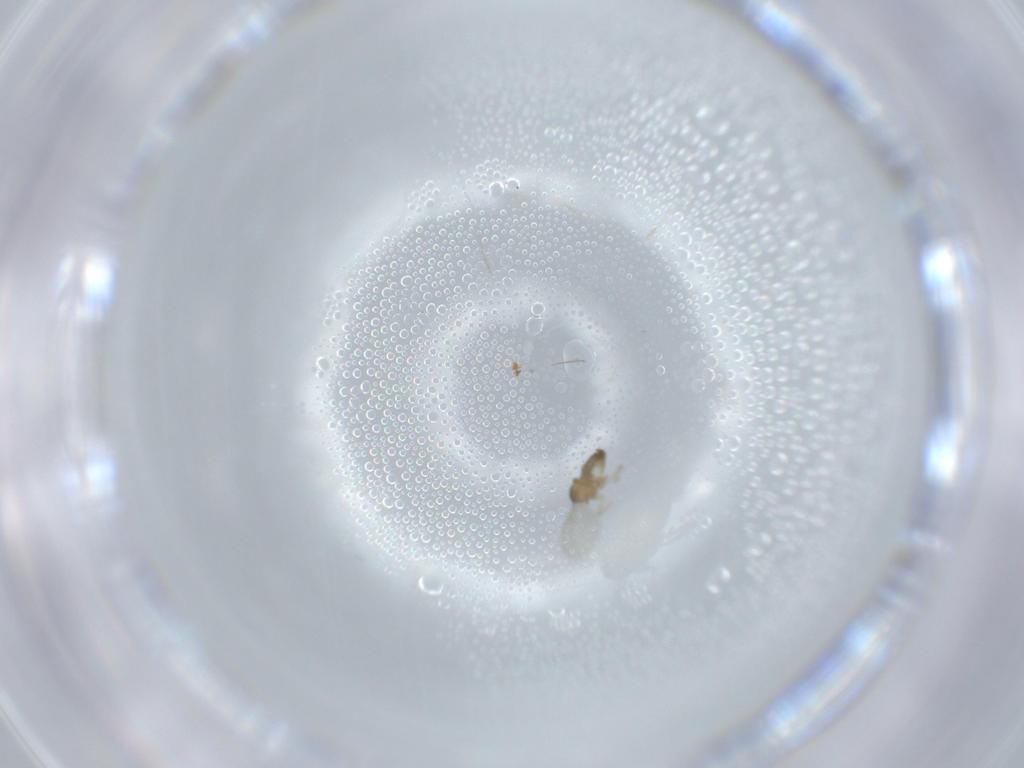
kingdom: Animalia
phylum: Arthropoda
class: Insecta
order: Diptera
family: Cecidomyiidae
